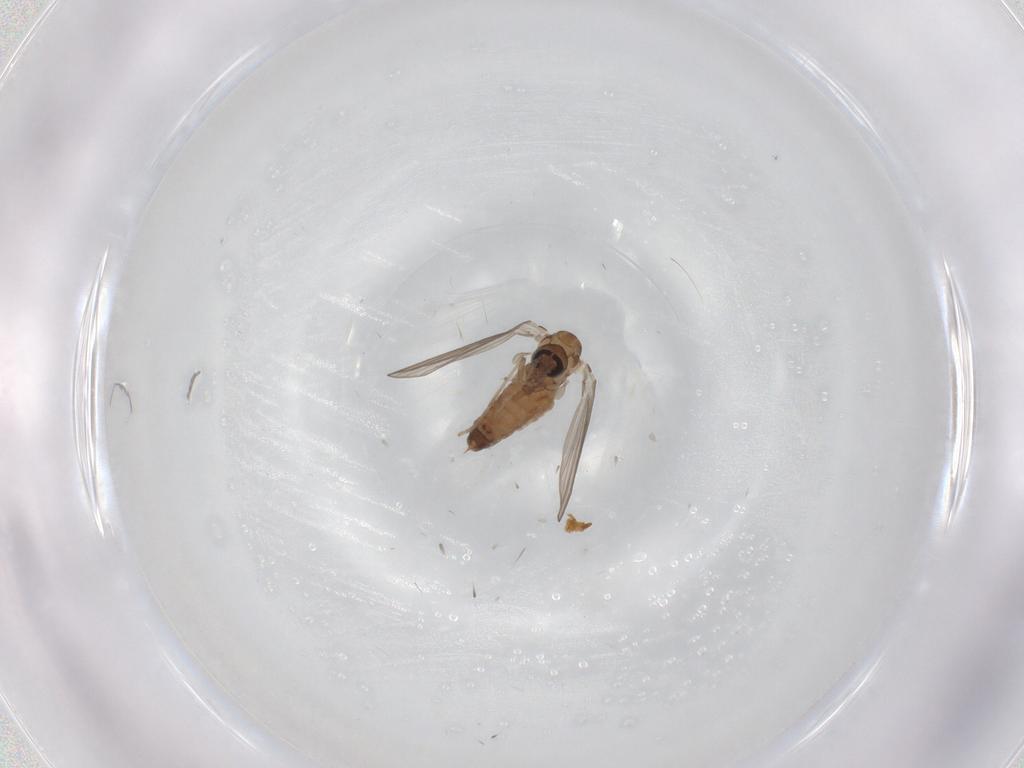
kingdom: Animalia
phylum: Arthropoda
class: Insecta
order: Diptera
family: Psychodidae
